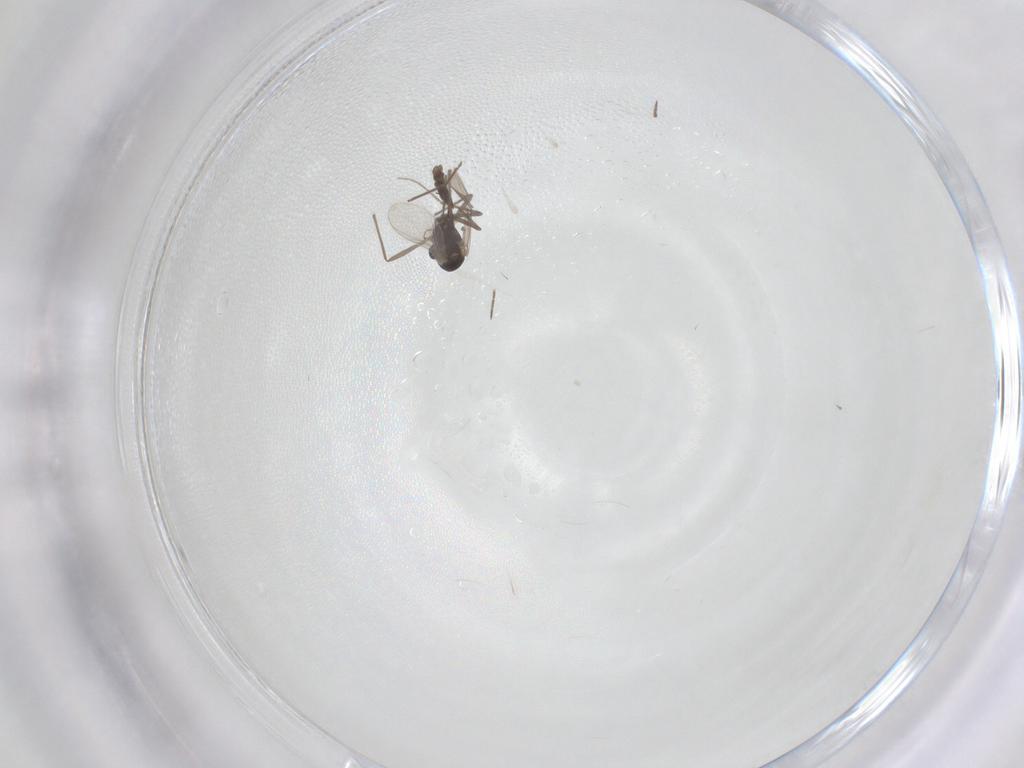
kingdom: Animalia
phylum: Arthropoda
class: Insecta
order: Diptera
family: Chironomidae
